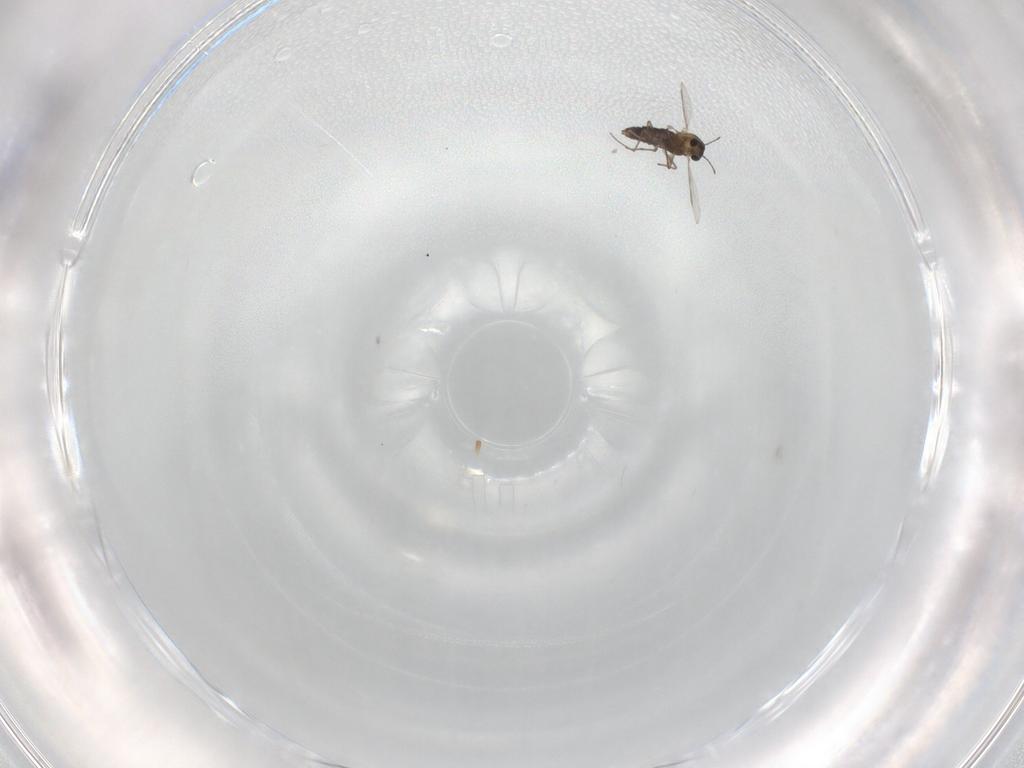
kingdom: Animalia
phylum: Arthropoda
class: Insecta
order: Diptera
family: Chironomidae
